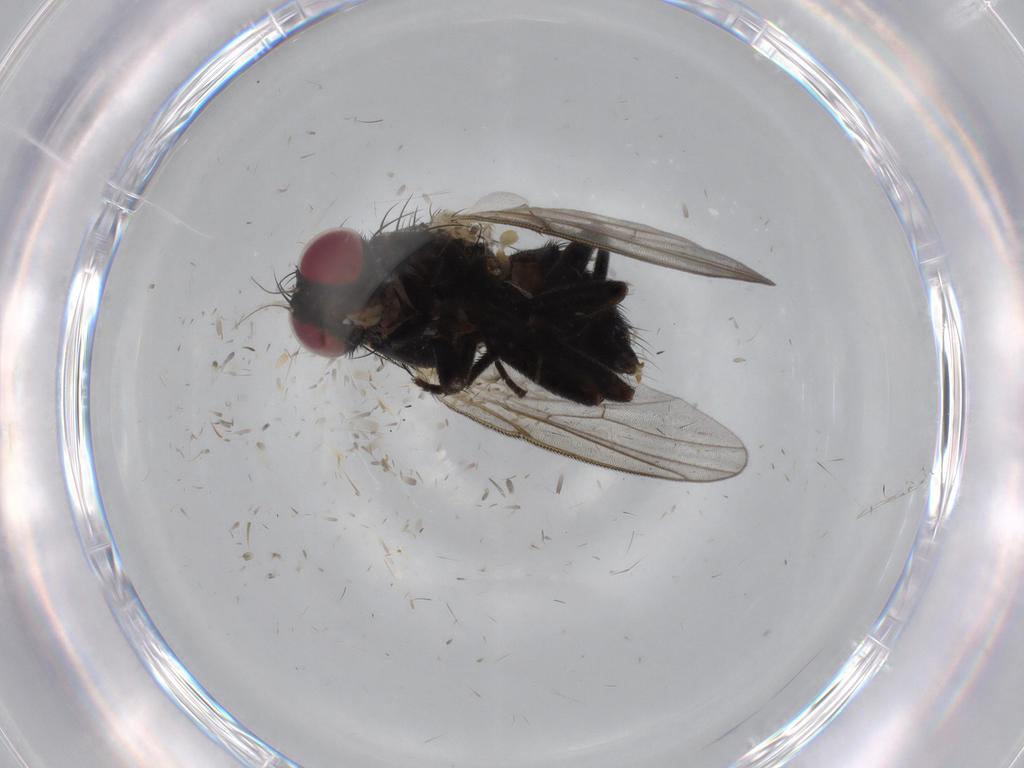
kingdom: Animalia
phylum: Arthropoda
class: Insecta
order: Diptera
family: Agromyzidae
